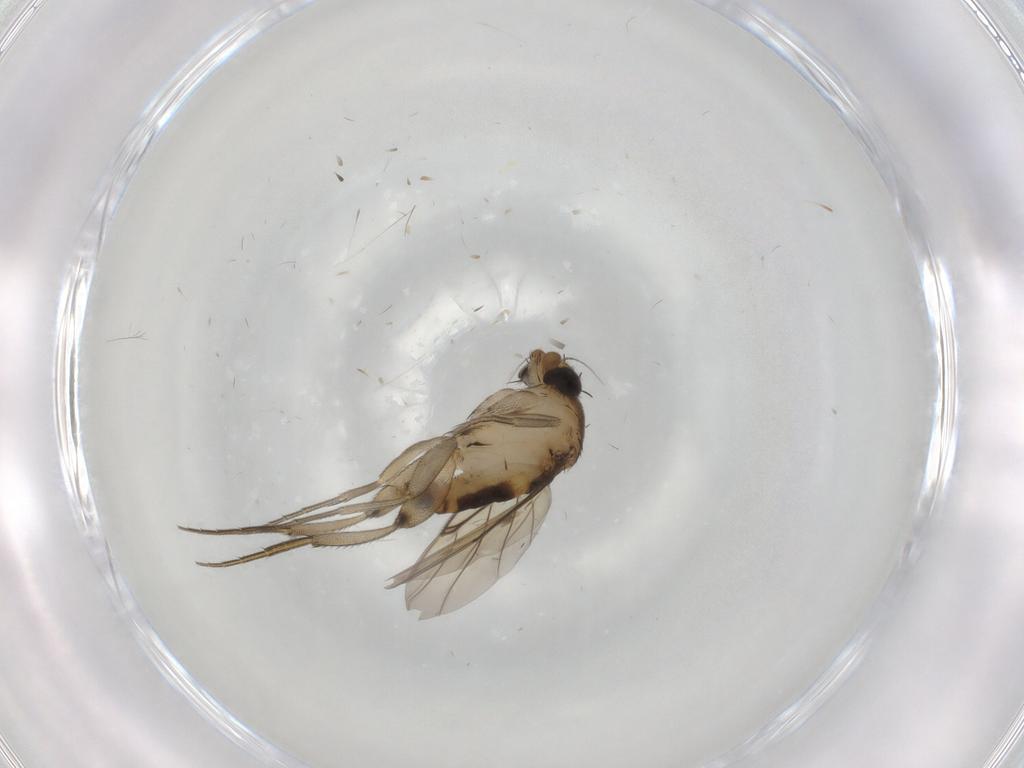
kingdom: Animalia
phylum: Arthropoda
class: Insecta
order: Diptera
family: Phoridae
